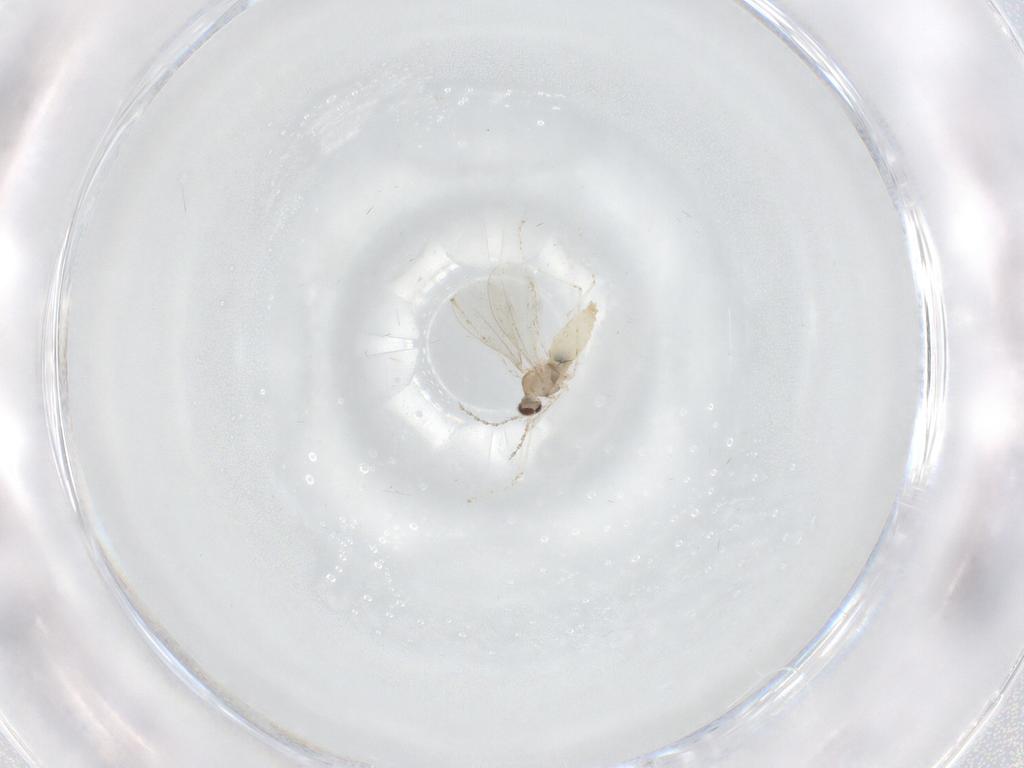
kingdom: Animalia
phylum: Arthropoda
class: Insecta
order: Diptera
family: Cecidomyiidae
